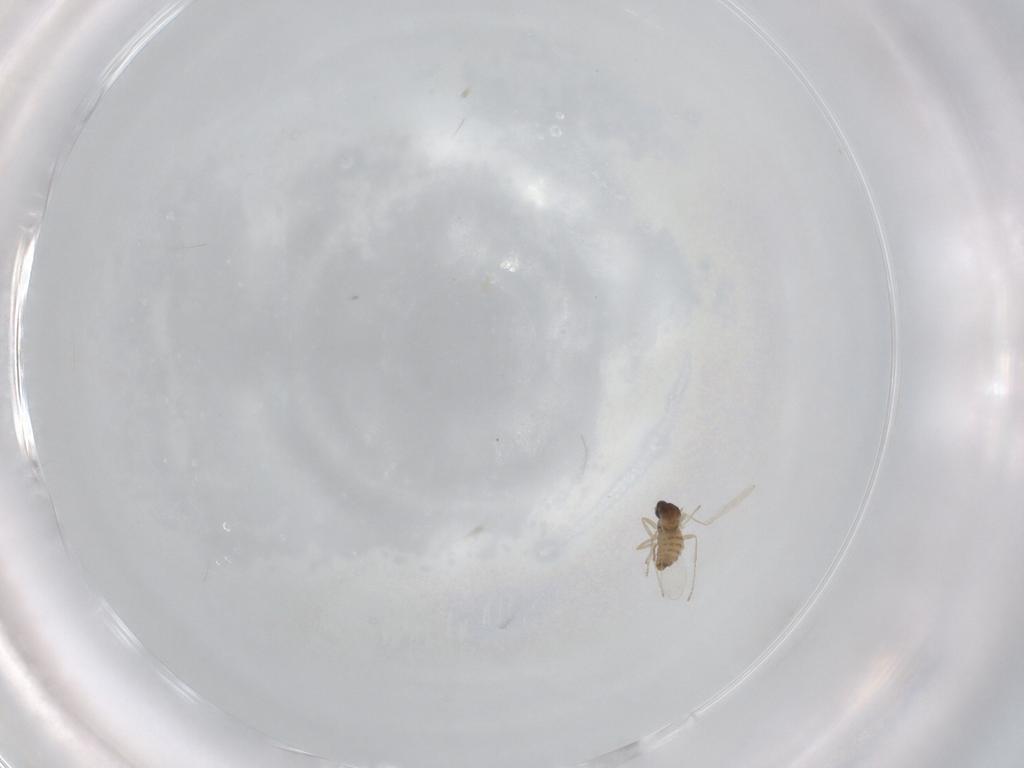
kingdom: Animalia
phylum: Arthropoda
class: Insecta
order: Diptera
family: Cecidomyiidae
